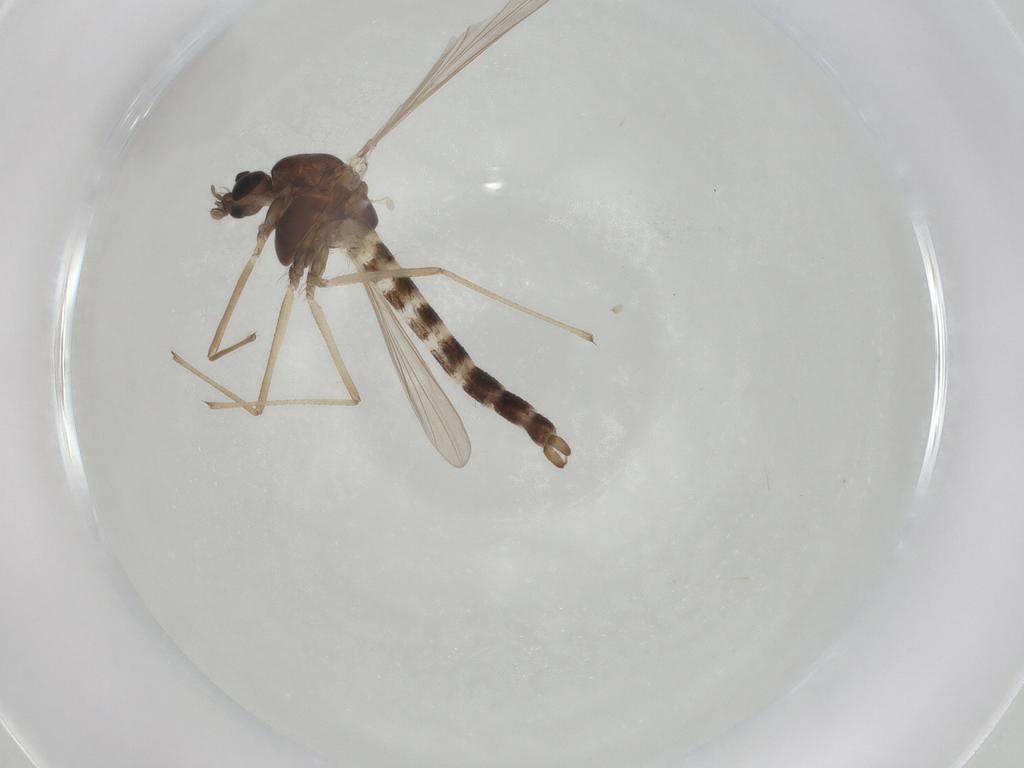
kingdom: Animalia
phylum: Arthropoda
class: Insecta
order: Diptera
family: Chironomidae
